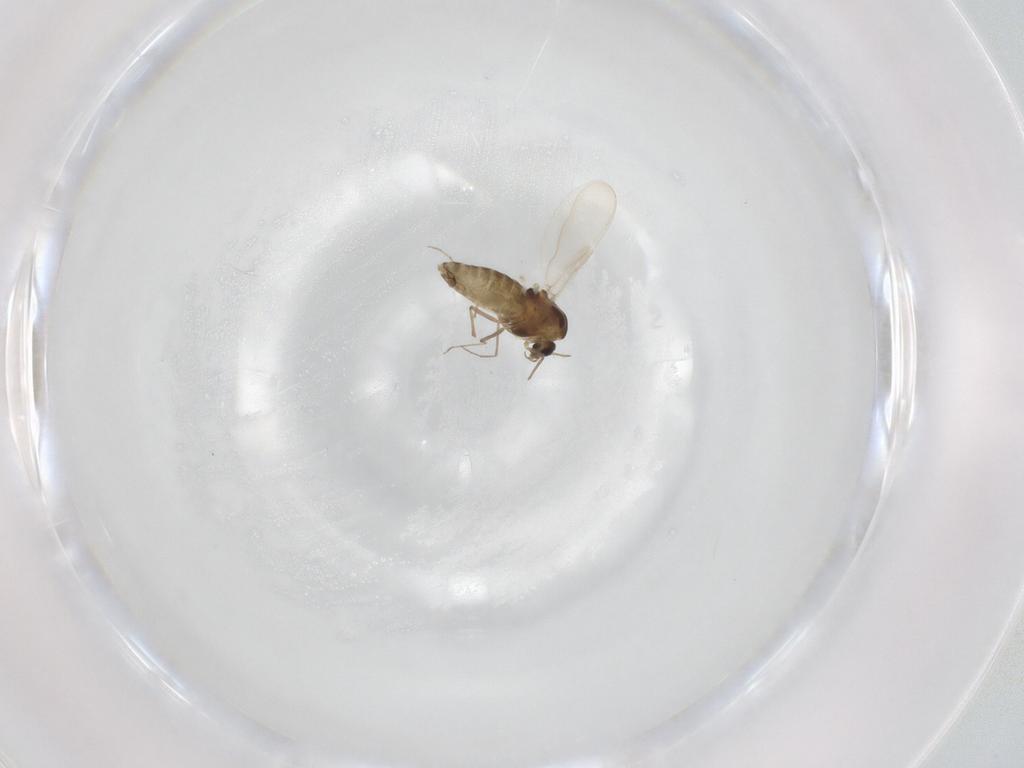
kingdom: Animalia
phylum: Arthropoda
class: Insecta
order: Diptera
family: Chironomidae
